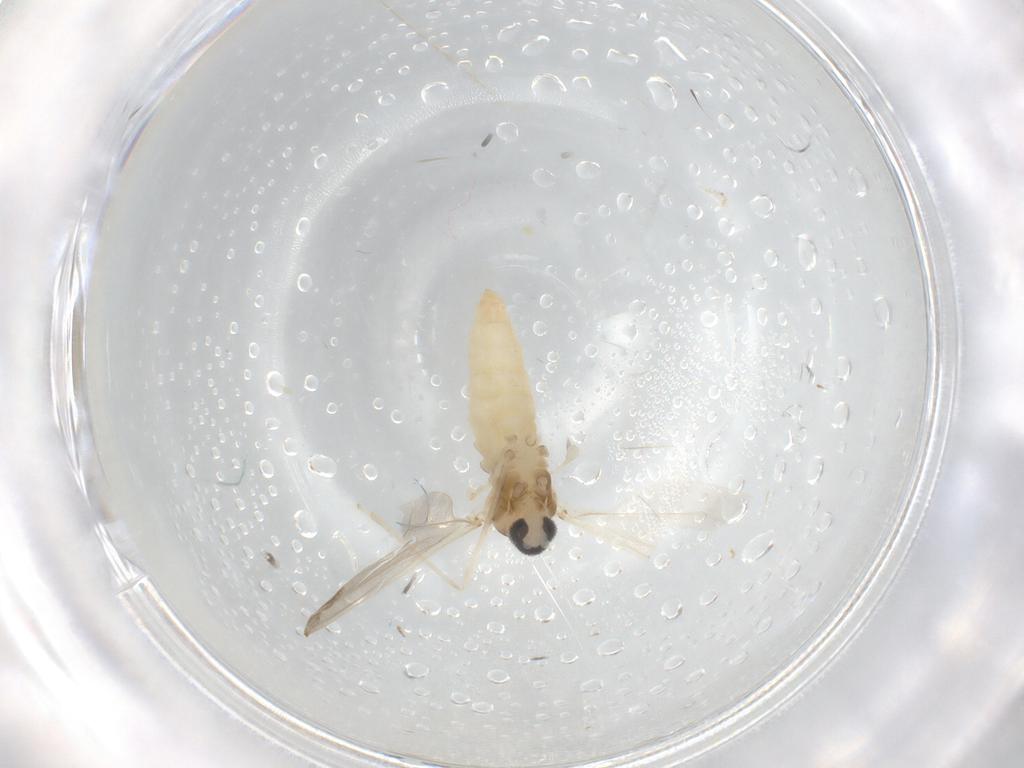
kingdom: Animalia
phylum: Arthropoda
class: Insecta
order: Diptera
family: Cecidomyiidae
